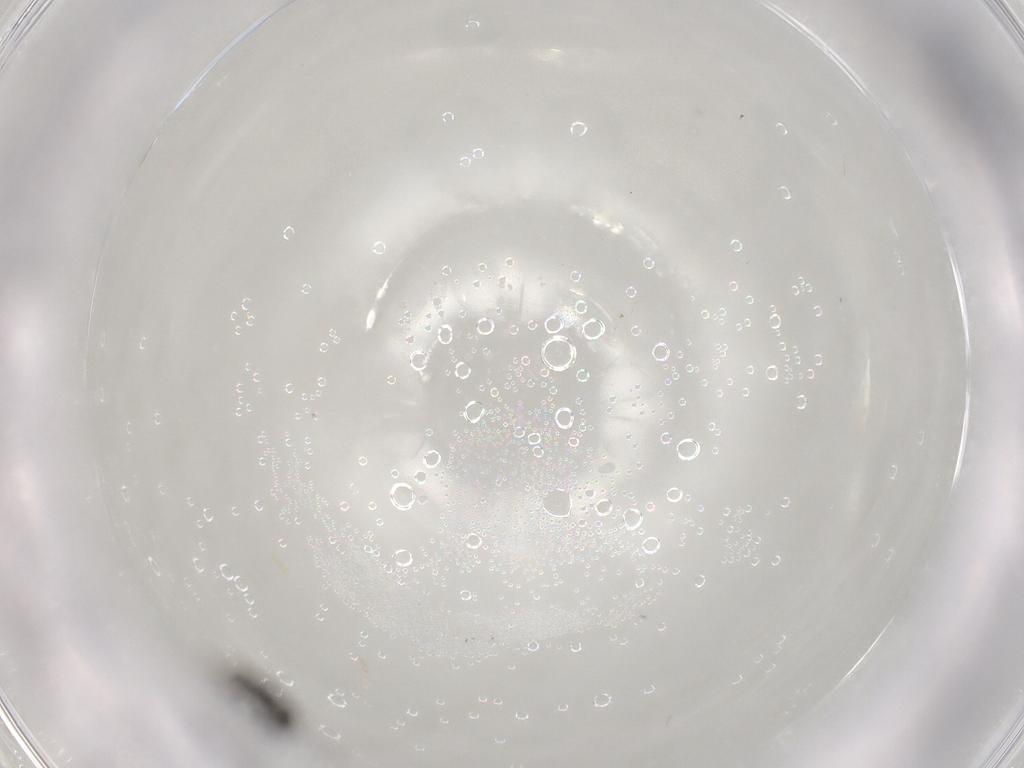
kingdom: Animalia
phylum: Arthropoda
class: Insecta
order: Hymenoptera
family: Figitidae
